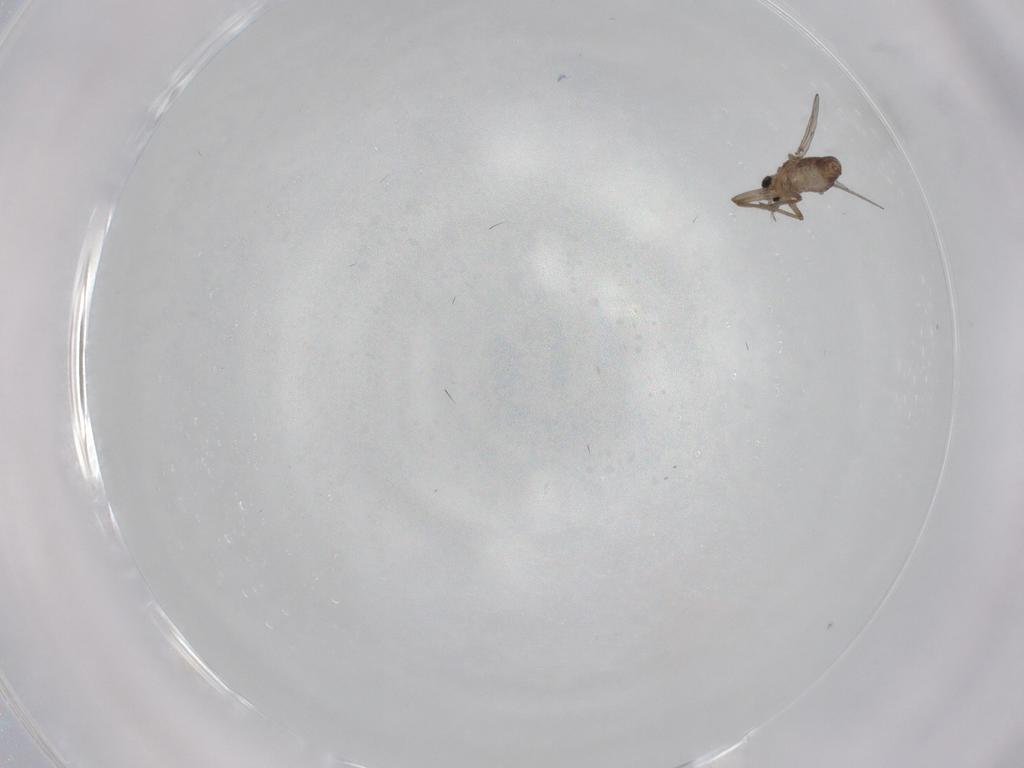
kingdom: Animalia
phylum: Arthropoda
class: Insecta
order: Diptera
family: Chironomidae
